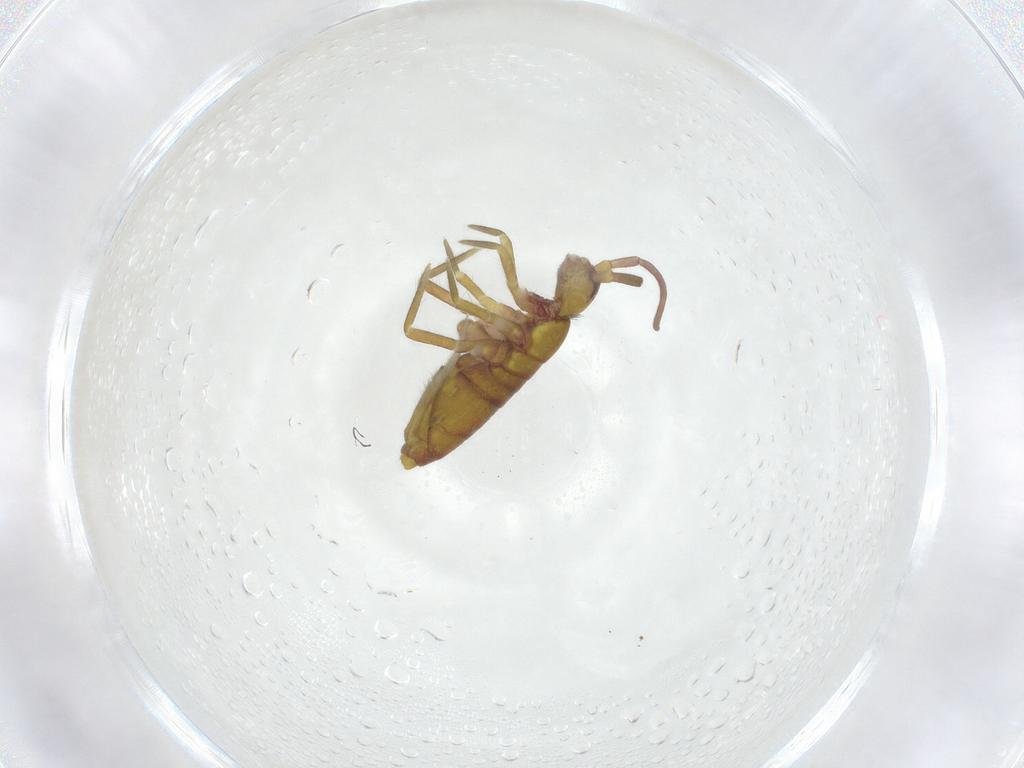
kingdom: Animalia
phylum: Arthropoda
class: Collembola
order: Entomobryomorpha
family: Tomoceridae
